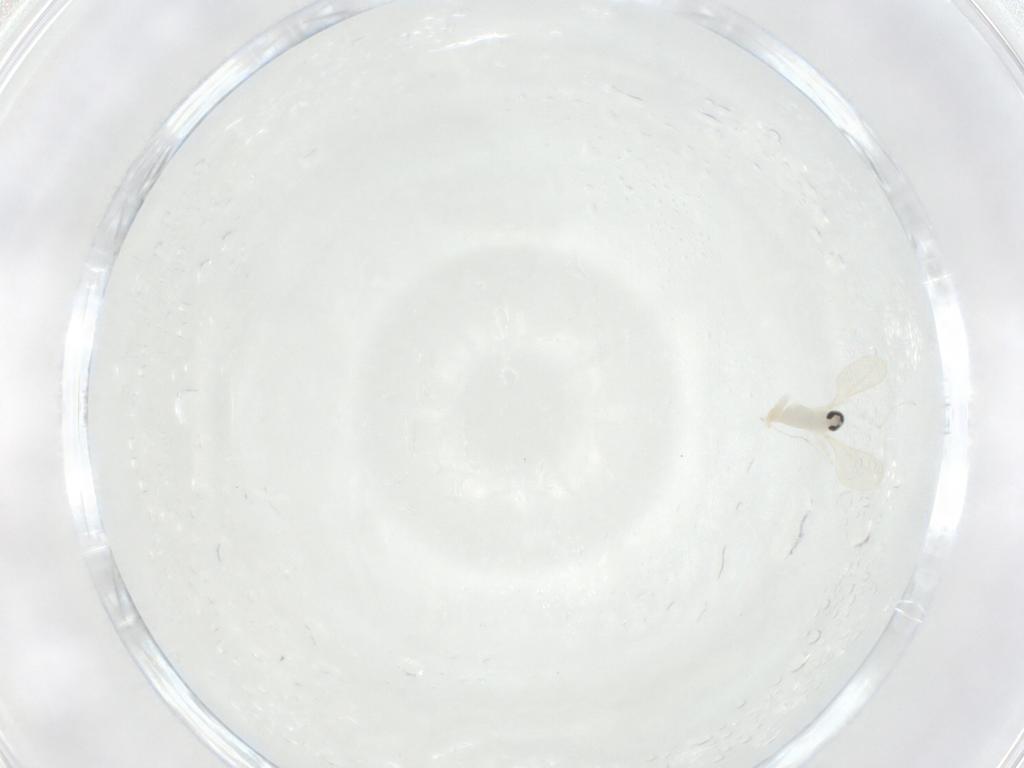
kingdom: Animalia
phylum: Arthropoda
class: Insecta
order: Diptera
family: Cecidomyiidae
